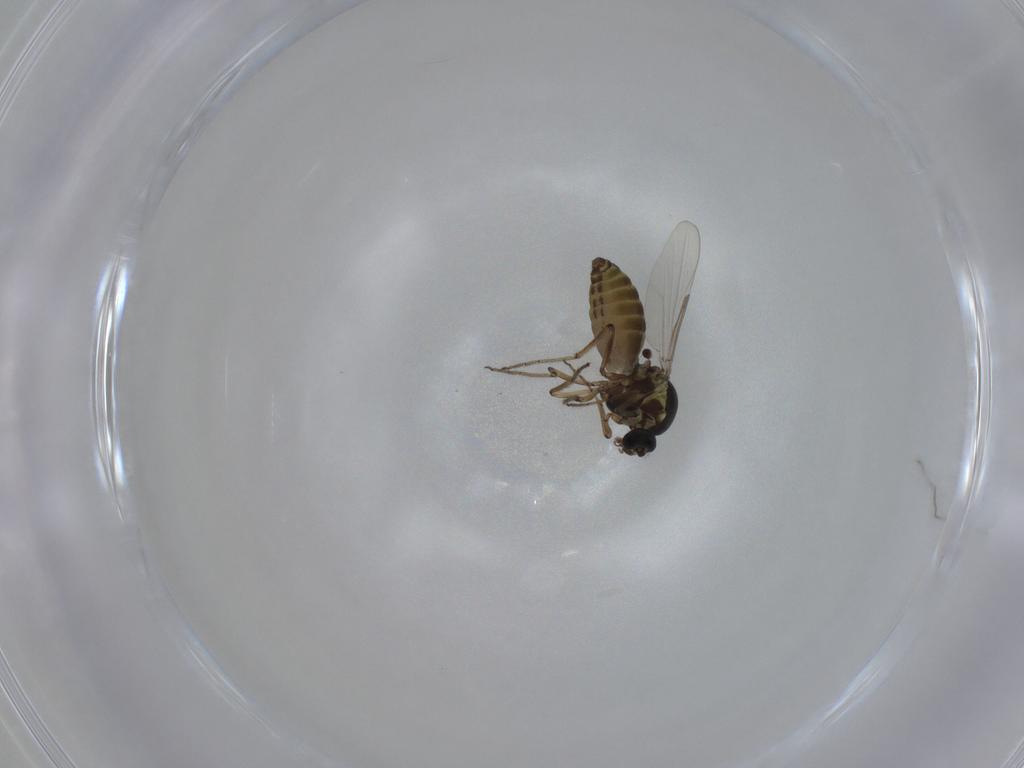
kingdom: Animalia
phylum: Arthropoda
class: Insecta
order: Diptera
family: Ceratopogonidae
